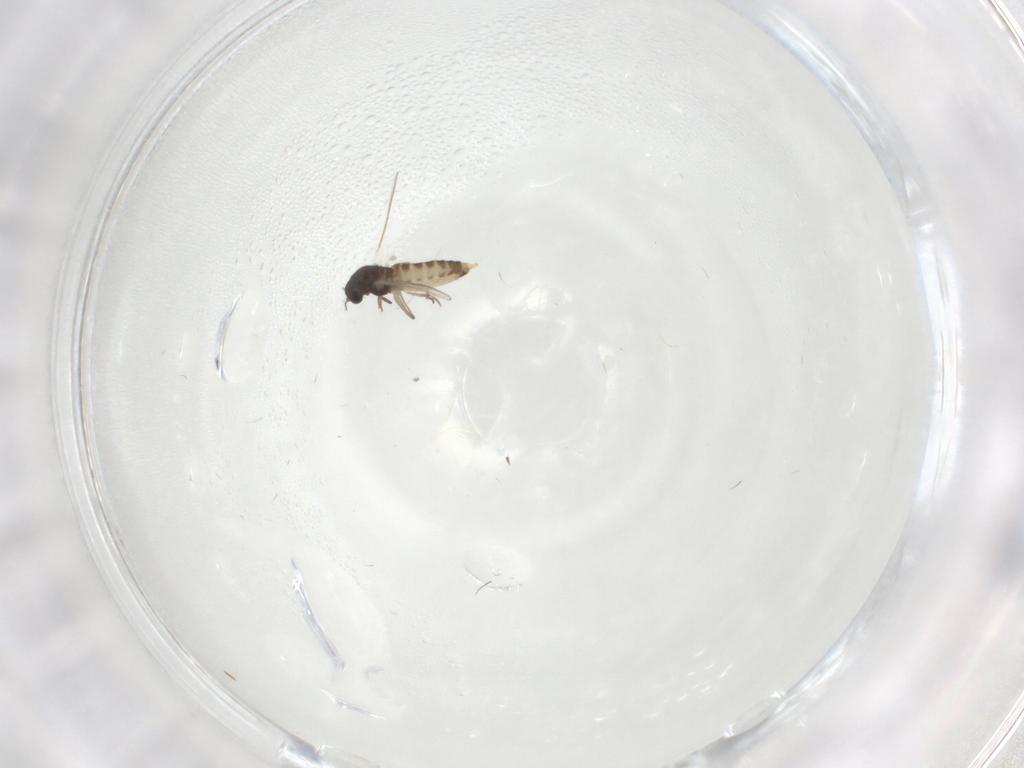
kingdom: Animalia
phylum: Arthropoda
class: Insecta
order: Diptera
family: Chironomidae
